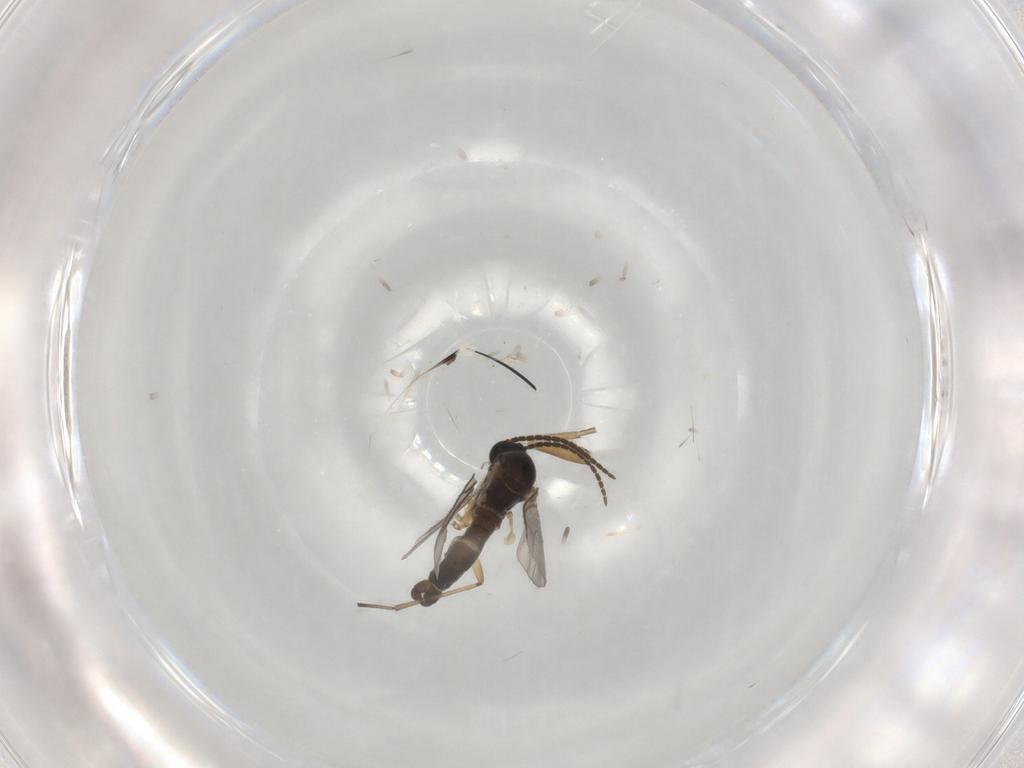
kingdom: Animalia
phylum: Arthropoda
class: Insecta
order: Diptera
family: Sciaridae
